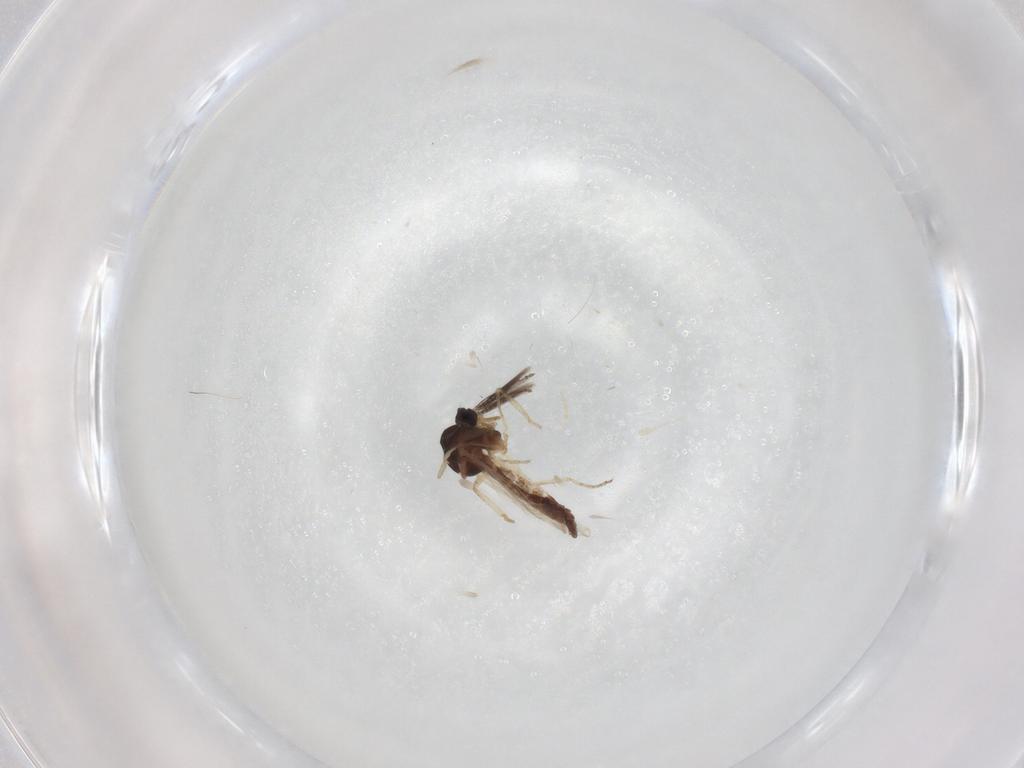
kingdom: Animalia
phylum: Arthropoda
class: Insecta
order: Diptera
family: Ceratopogonidae
